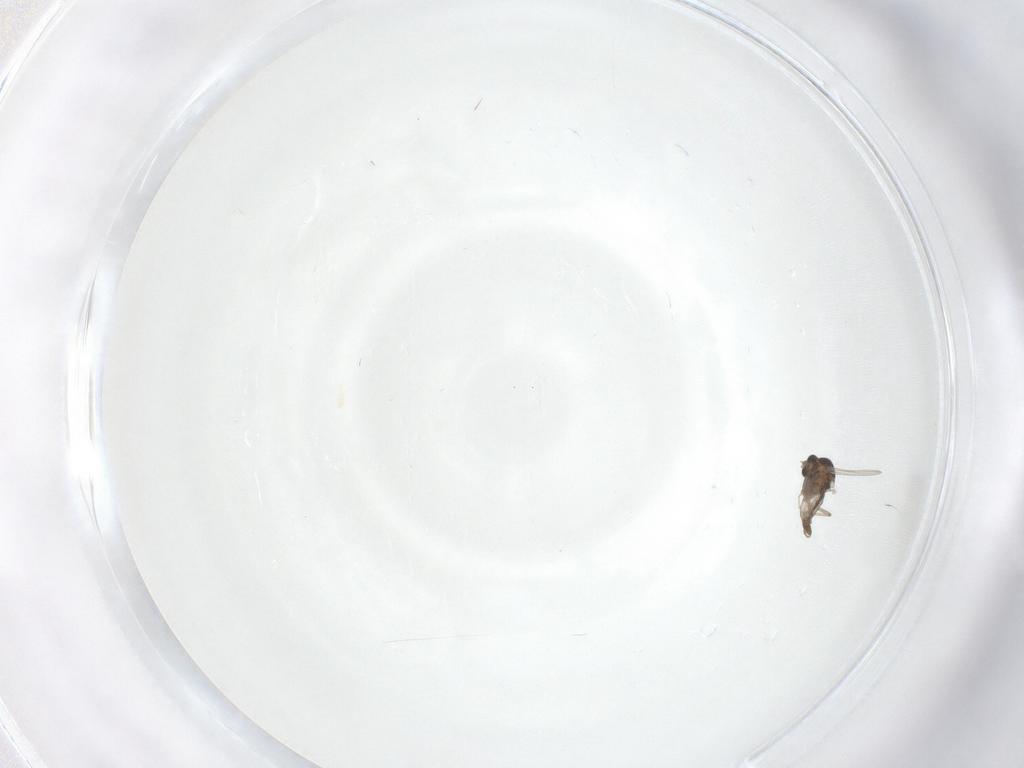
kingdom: Animalia
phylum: Arthropoda
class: Insecta
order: Diptera
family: Ceratopogonidae
